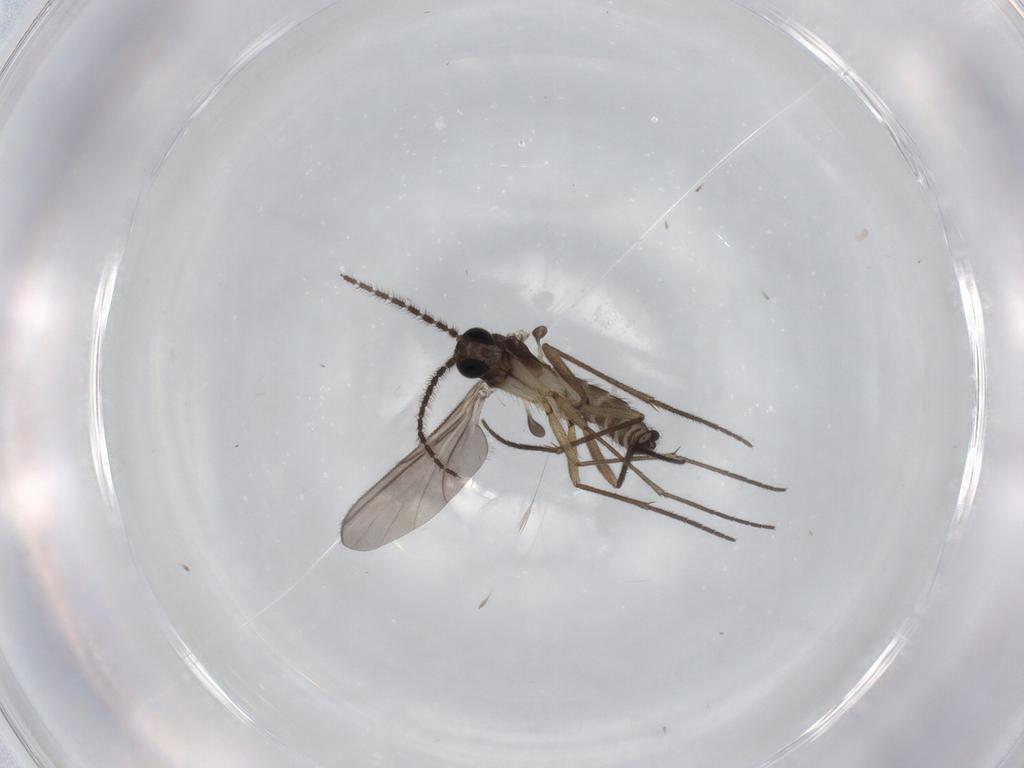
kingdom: Animalia
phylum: Arthropoda
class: Insecta
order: Diptera
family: Sciaridae
